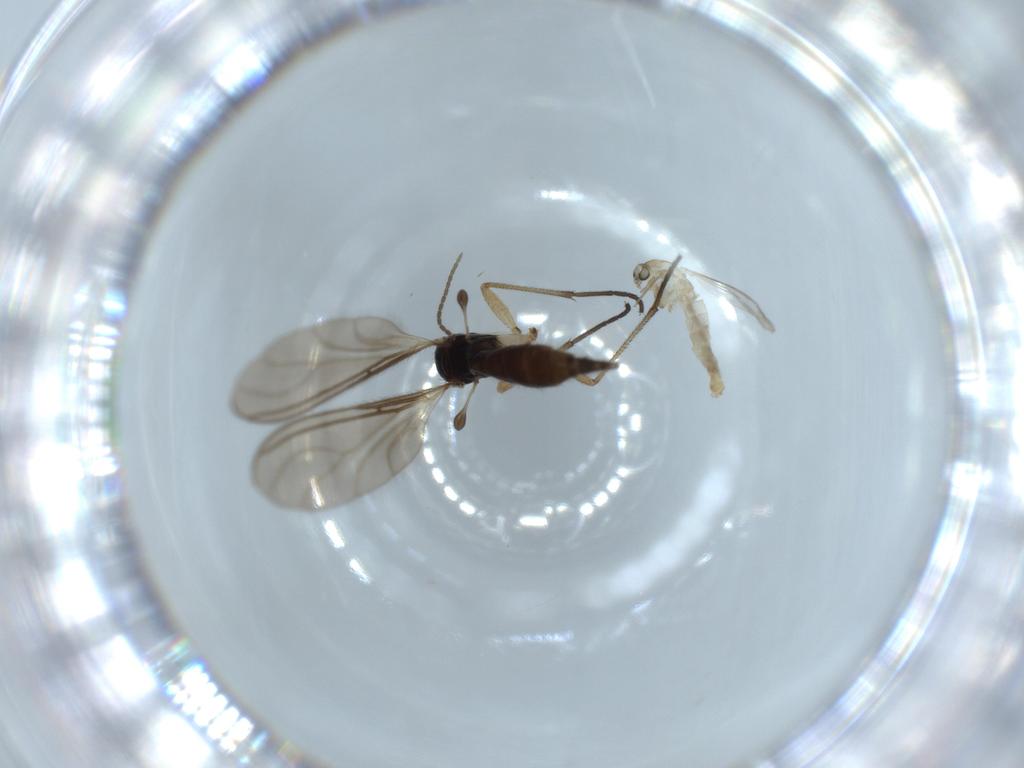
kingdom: Animalia
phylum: Arthropoda
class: Insecta
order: Diptera
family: Sciaridae
